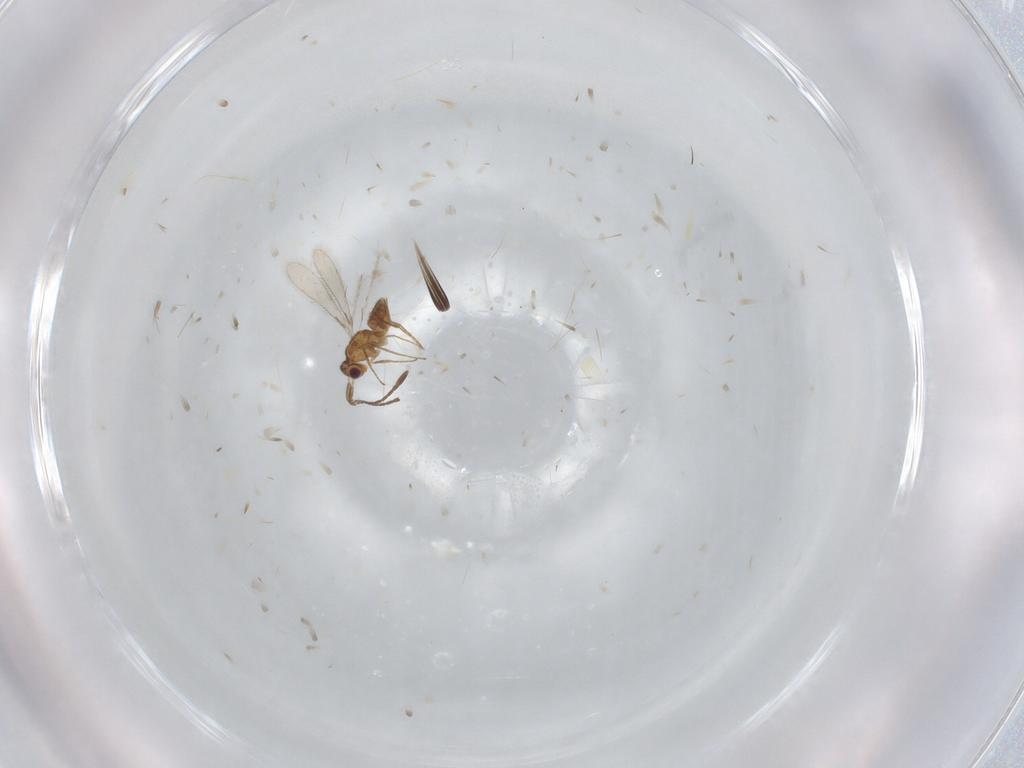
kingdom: Animalia
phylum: Arthropoda
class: Insecta
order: Hymenoptera
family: Mymaridae
